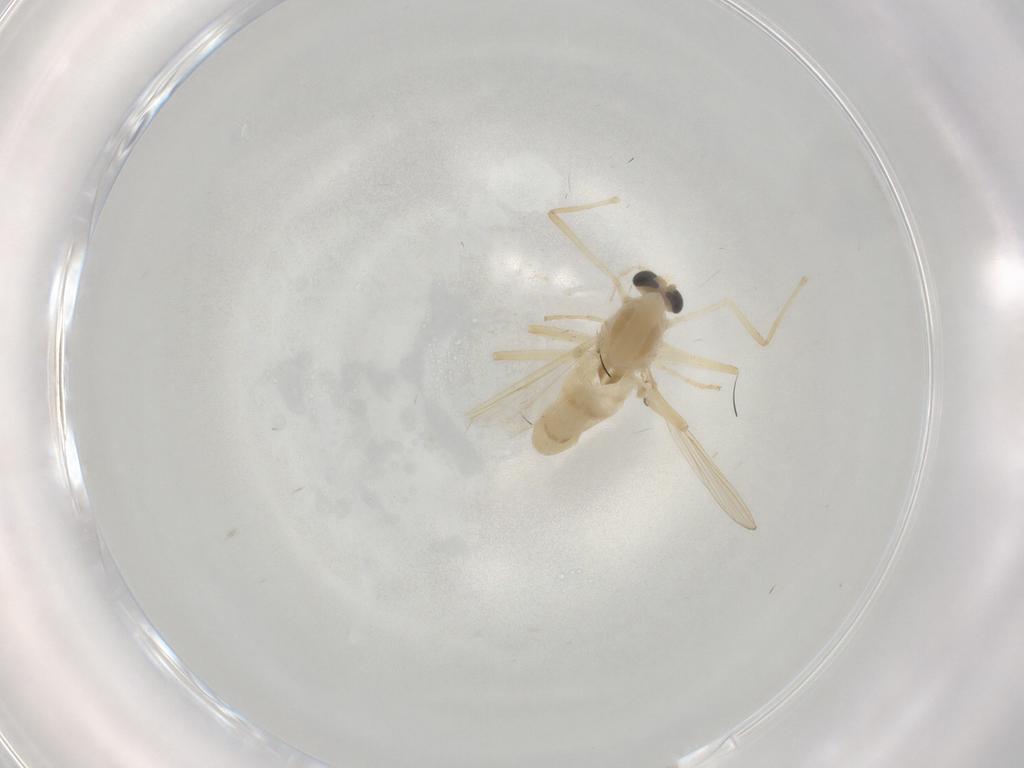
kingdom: Animalia
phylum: Arthropoda
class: Insecta
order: Diptera
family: Chironomidae
